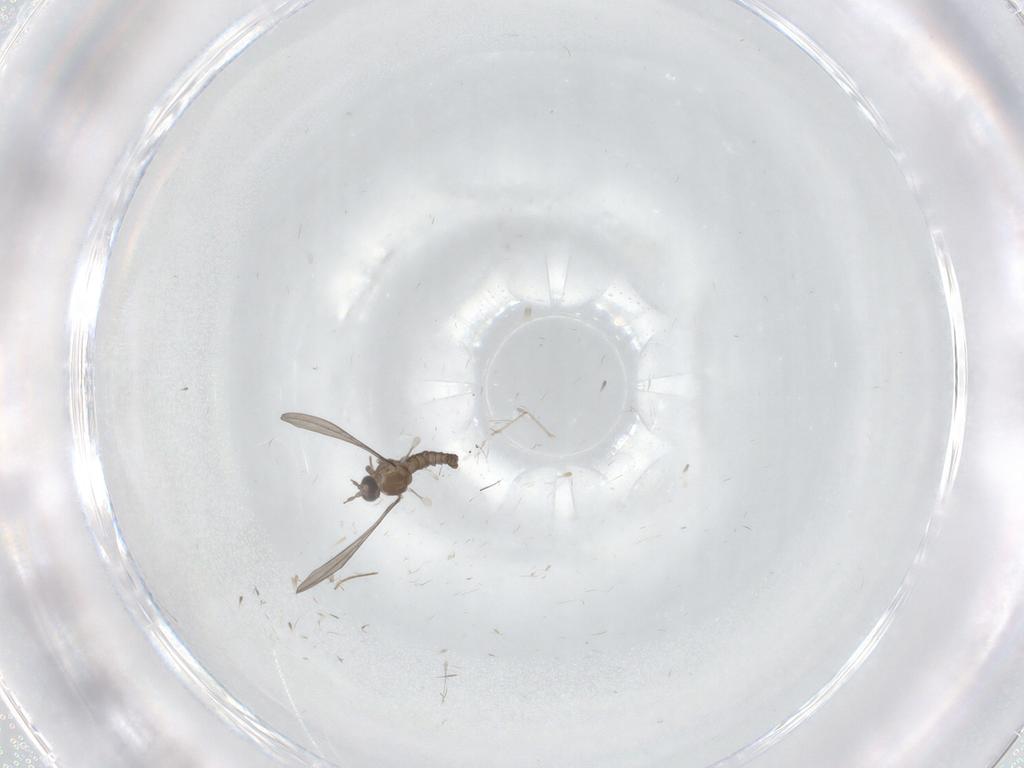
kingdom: Animalia
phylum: Arthropoda
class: Insecta
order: Diptera
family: Cecidomyiidae
